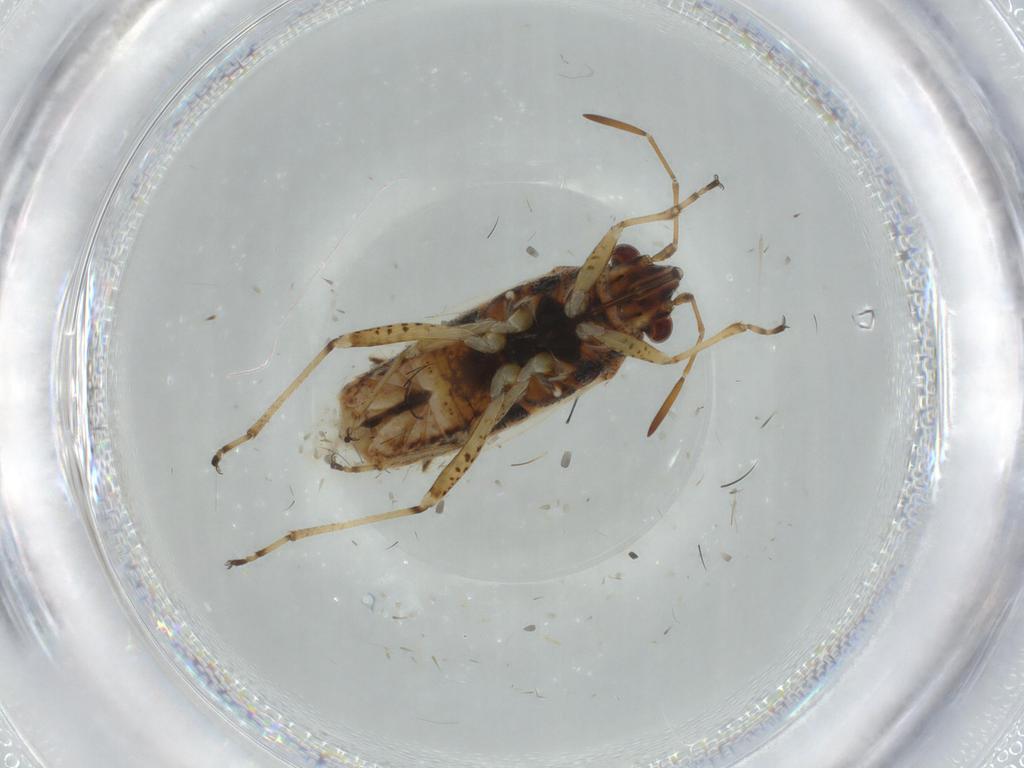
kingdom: Animalia
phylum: Arthropoda
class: Insecta
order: Hemiptera
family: Lygaeidae
